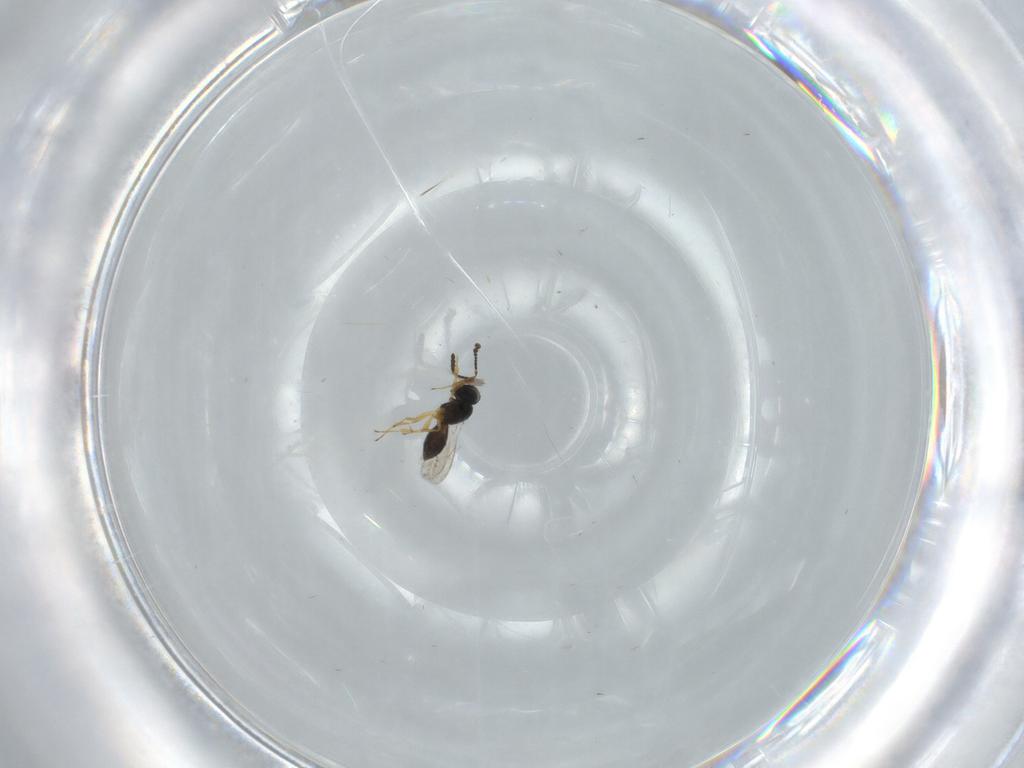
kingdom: Animalia
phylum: Arthropoda
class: Insecta
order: Hymenoptera
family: Scelionidae
